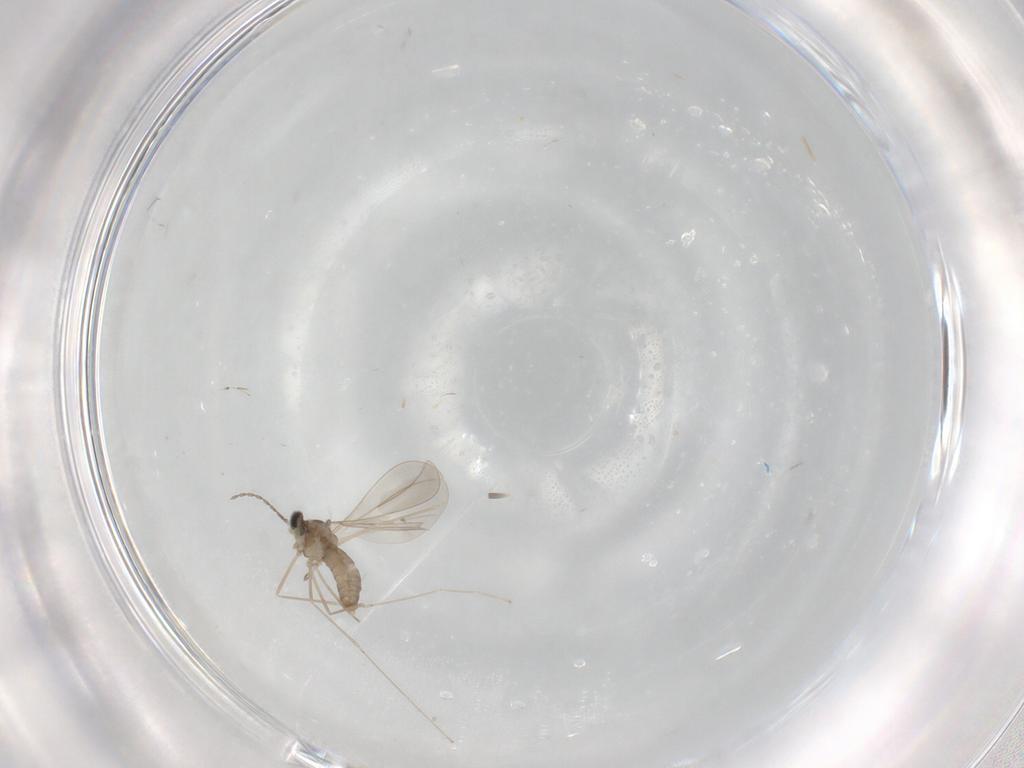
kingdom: Animalia
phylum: Arthropoda
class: Insecta
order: Diptera
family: Cecidomyiidae
